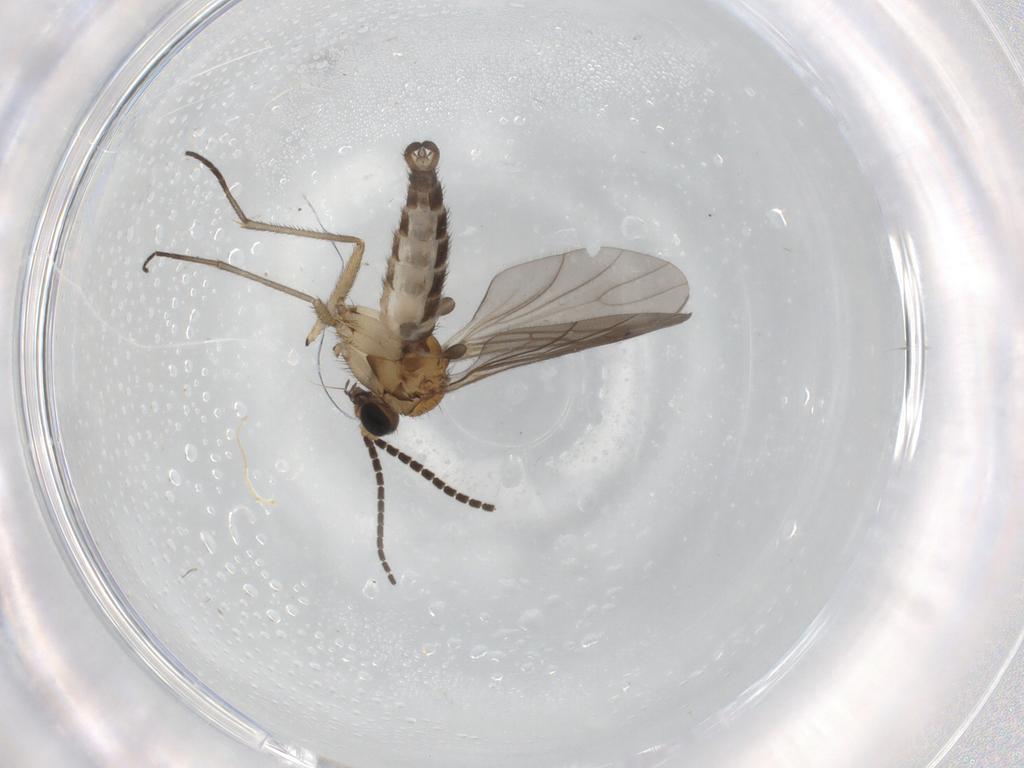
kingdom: Animalia
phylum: Arthropoda
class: Insecta
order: Diptera
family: Sciaridae
